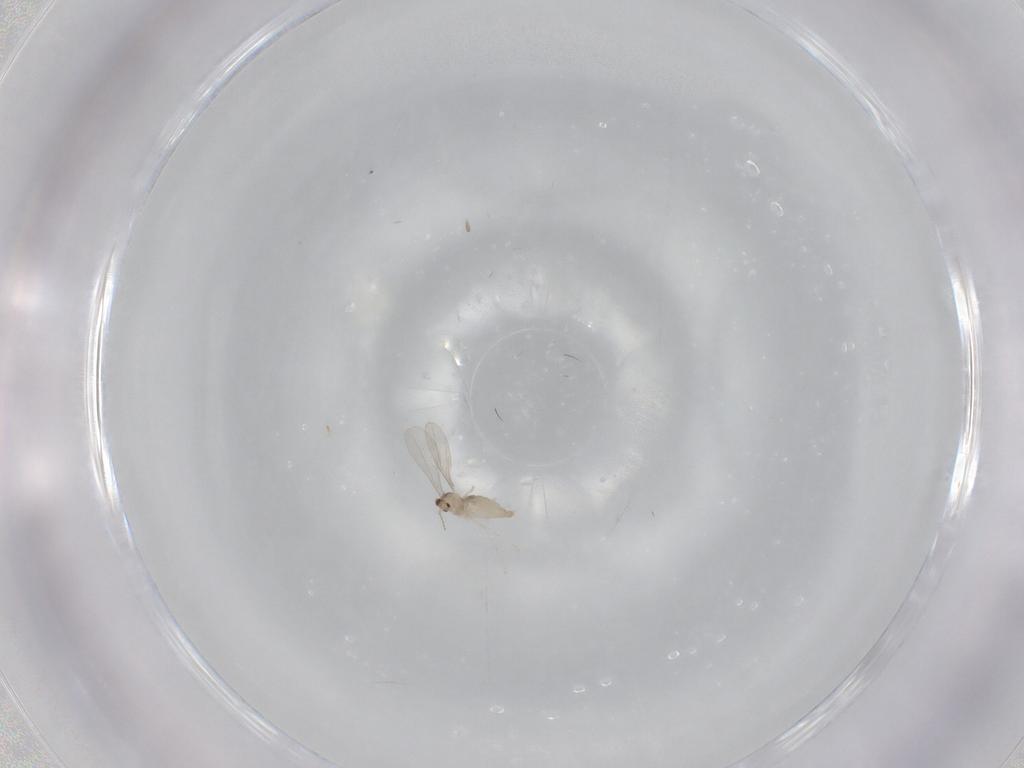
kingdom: Animalia
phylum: Arthropoda
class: Insecta
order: Diptera
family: Cecidomyiidae
